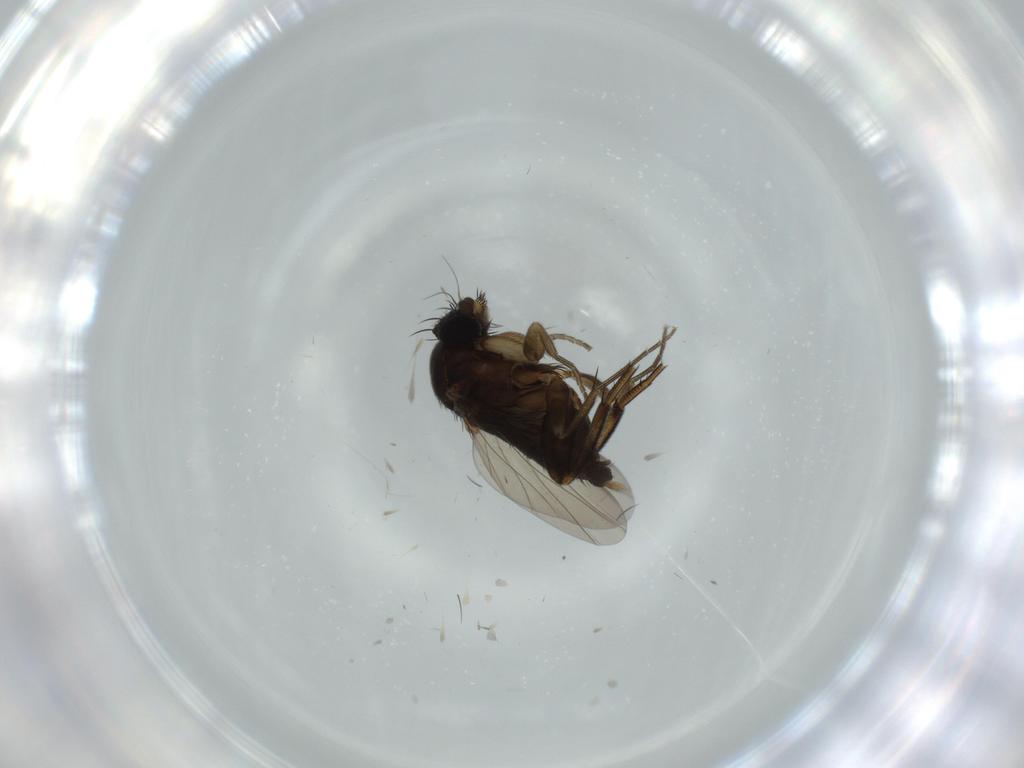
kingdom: Animalia
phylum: Arthropoda
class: Insecta
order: Diptera
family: Phoridae
